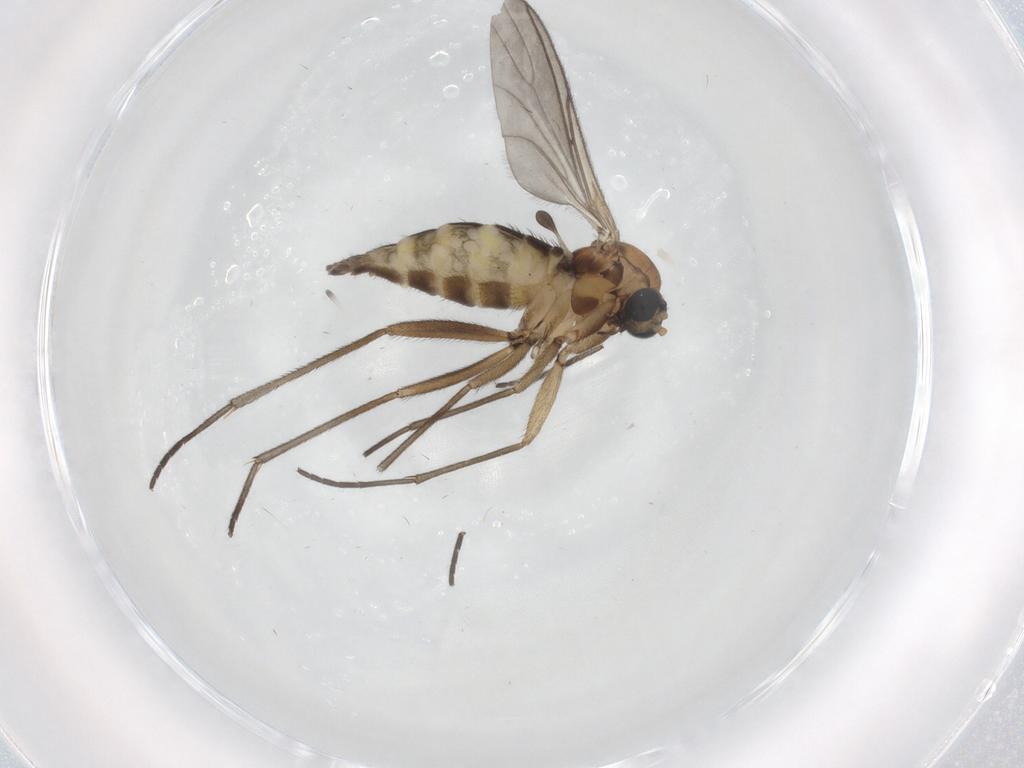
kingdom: Animalia
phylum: Arthropoda
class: Insecta
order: Diptera
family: Sciaridae
